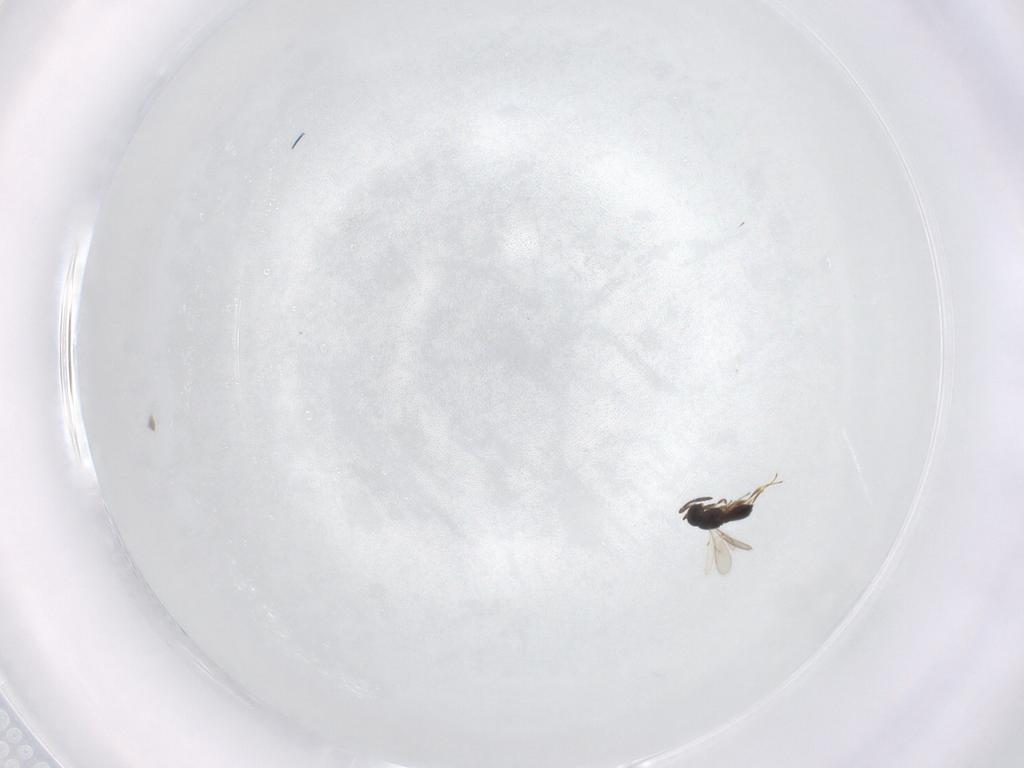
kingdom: Animalia
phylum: Arthropoda
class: Insecta
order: Hymenoptera
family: Scelionidae
